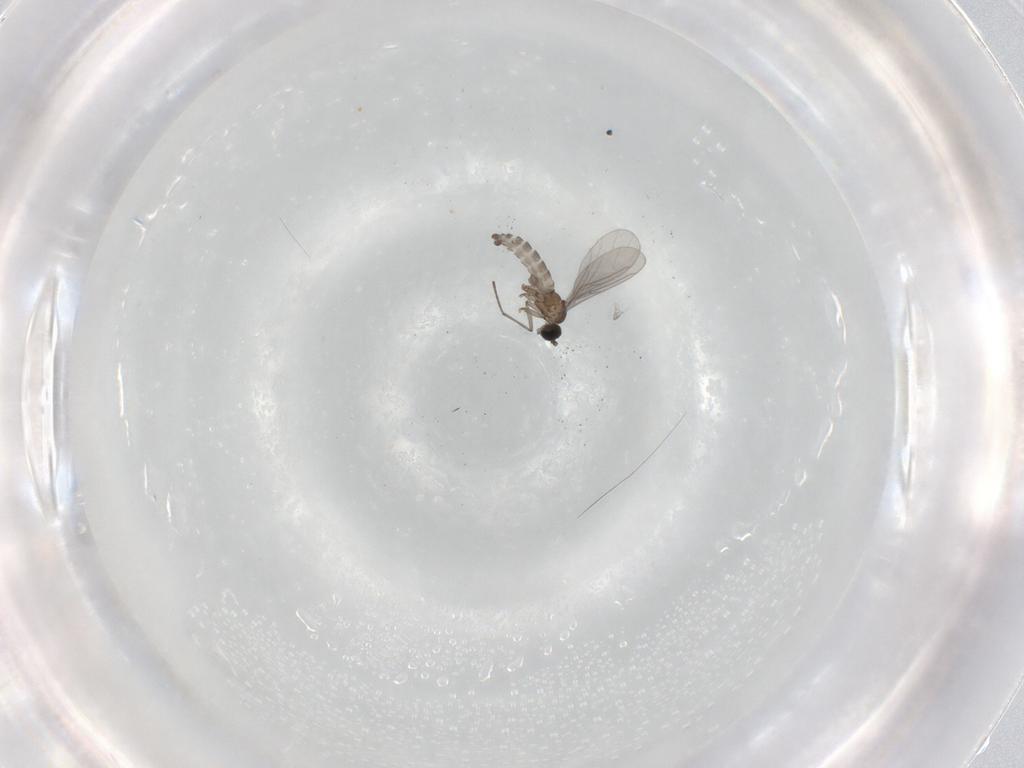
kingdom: Animalia
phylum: Arthropoda
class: Insecta
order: Diptera
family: Sciaridae
